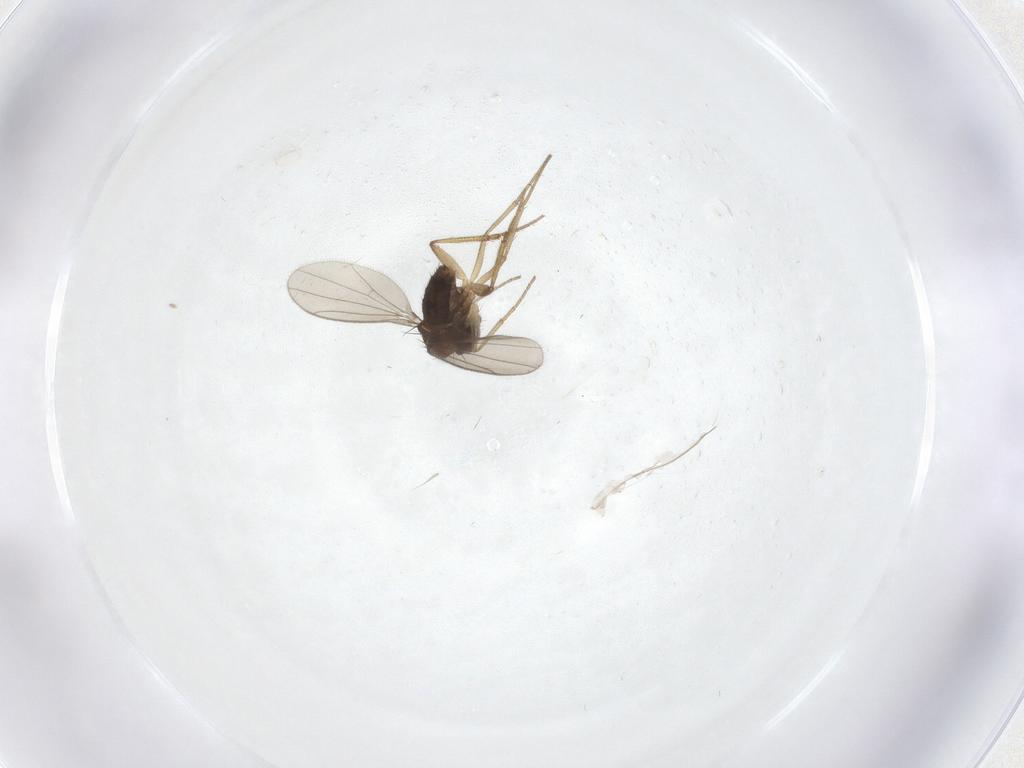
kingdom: Animalia
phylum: Arthropoda
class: Insecta
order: Diptera
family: Dolichopodidae
